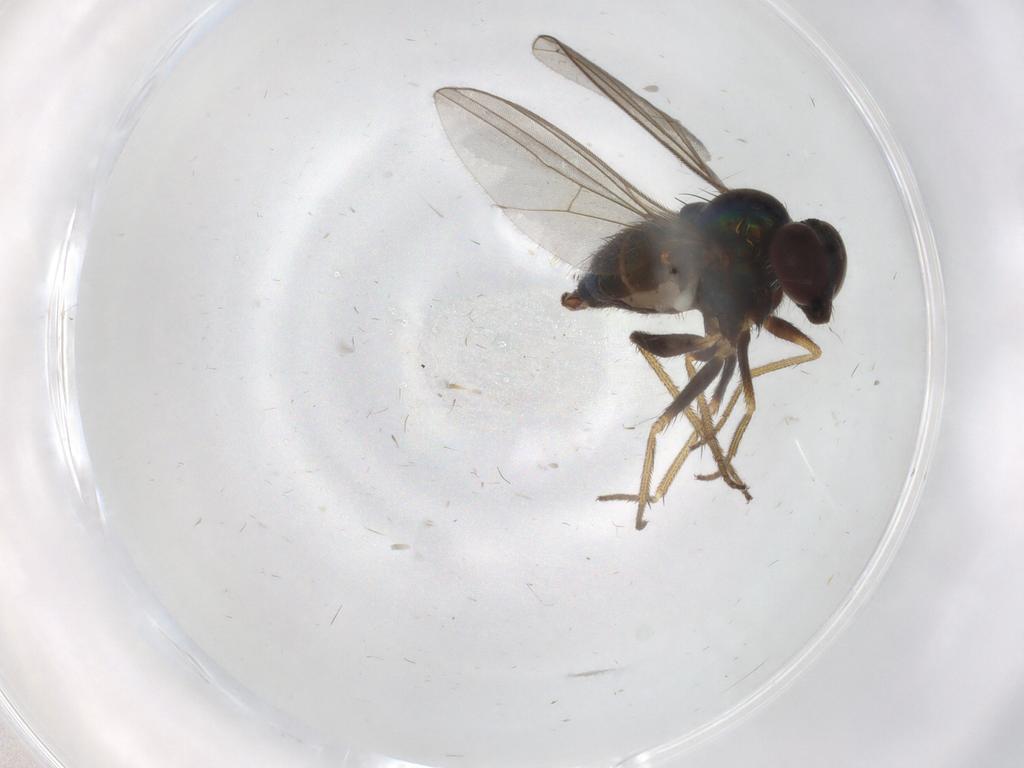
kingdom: Animalia
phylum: Arthropoda
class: Insecta
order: Diptera
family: Dolichopodidae
